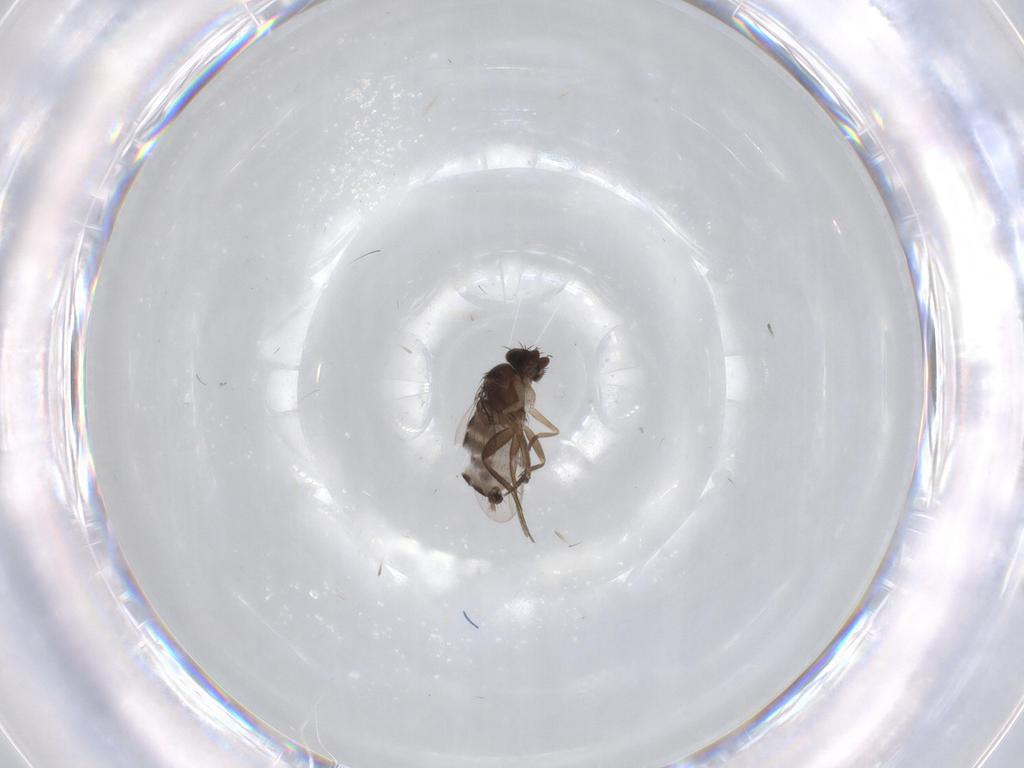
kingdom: Animalia
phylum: Arthropoda
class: Insecta
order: Diptera
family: Phoridae
